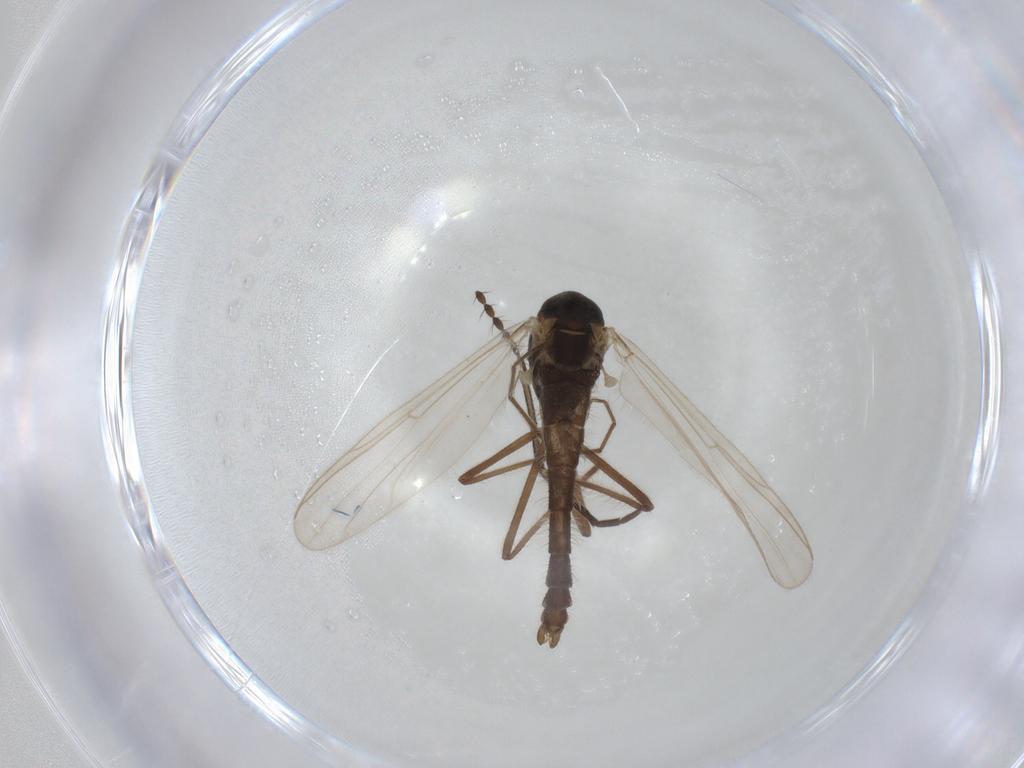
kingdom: Animalia
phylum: Arthropoda
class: Insecta
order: Diptera
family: Chironomidae
